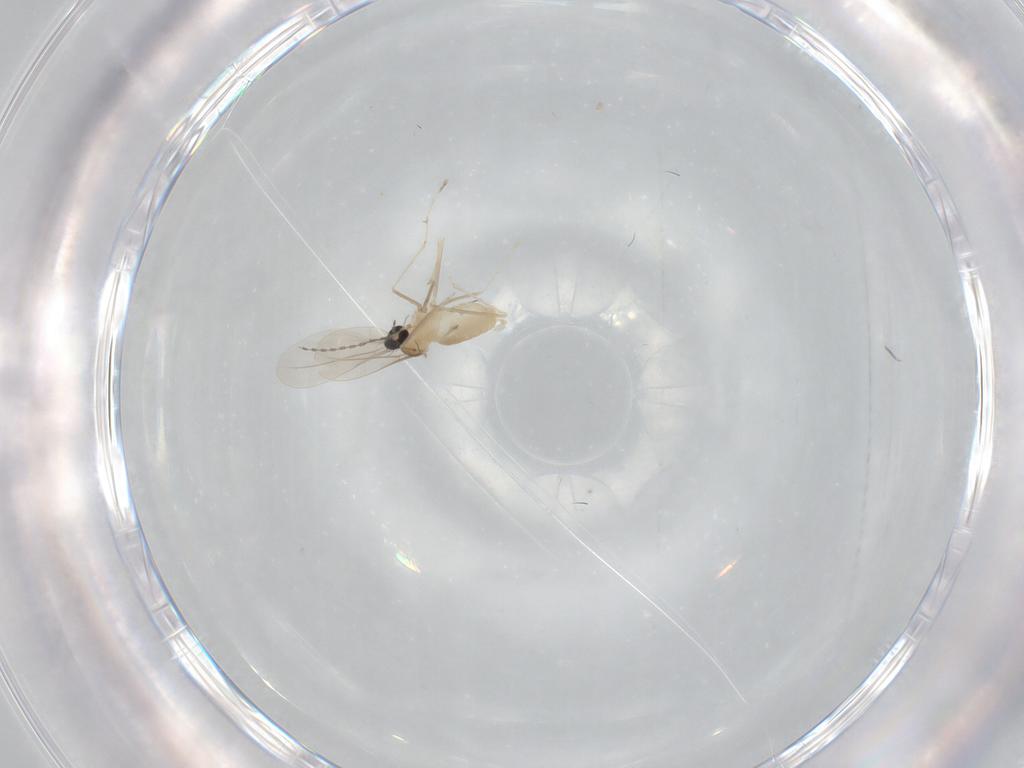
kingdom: Animalia
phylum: Arthropoda
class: Insecta
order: Diptera
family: Cecidomyiidae
